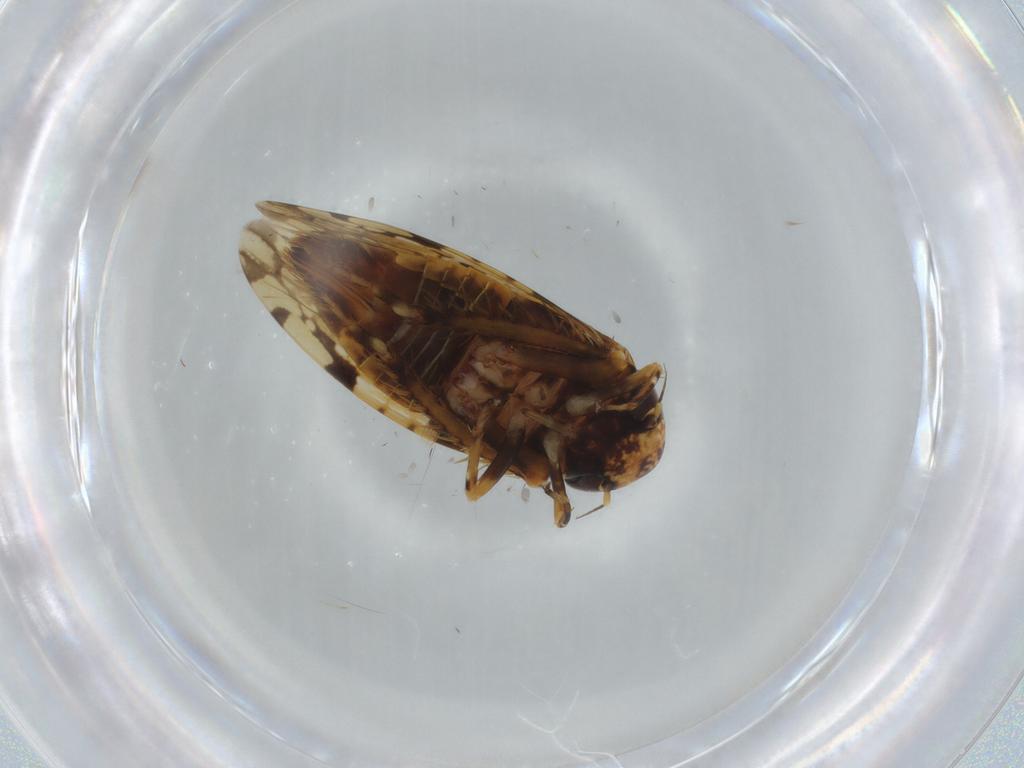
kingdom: Animalia
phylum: Arthropoda
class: Insecta
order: Hemiptera
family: Cicadellidae
